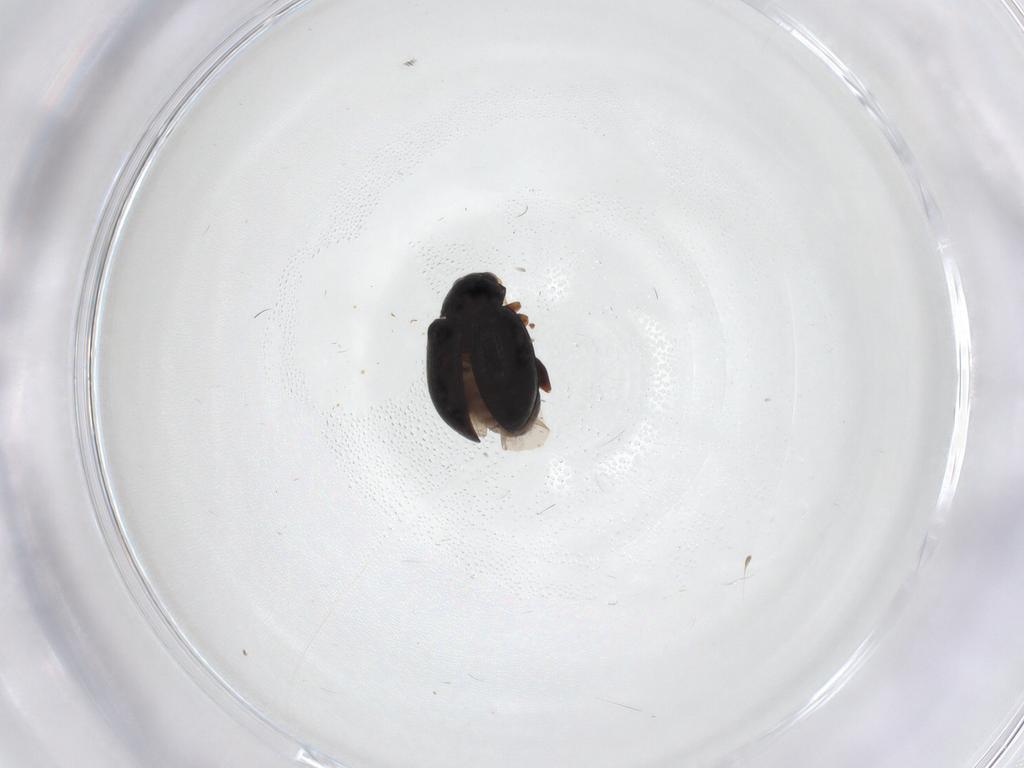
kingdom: Animalia
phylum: Arthropoda
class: Insecta
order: Coleoptera
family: Chrysomelidae
